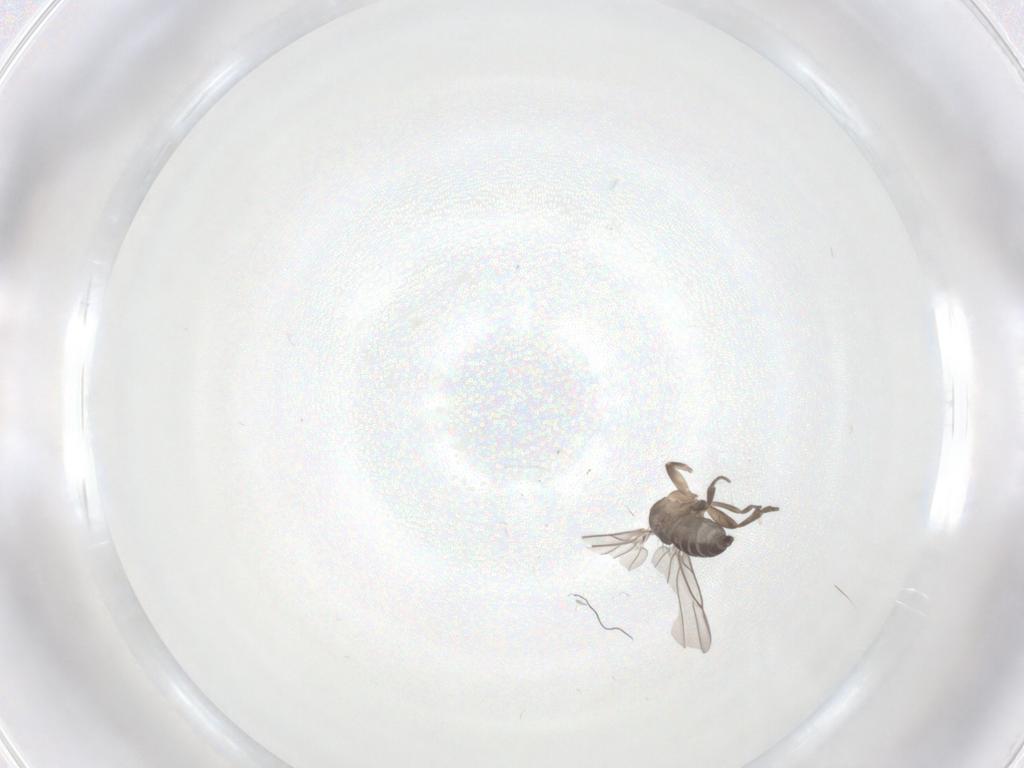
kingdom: Animalia
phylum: Arthropoda
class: Insecta
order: Diptera
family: Phoridae
